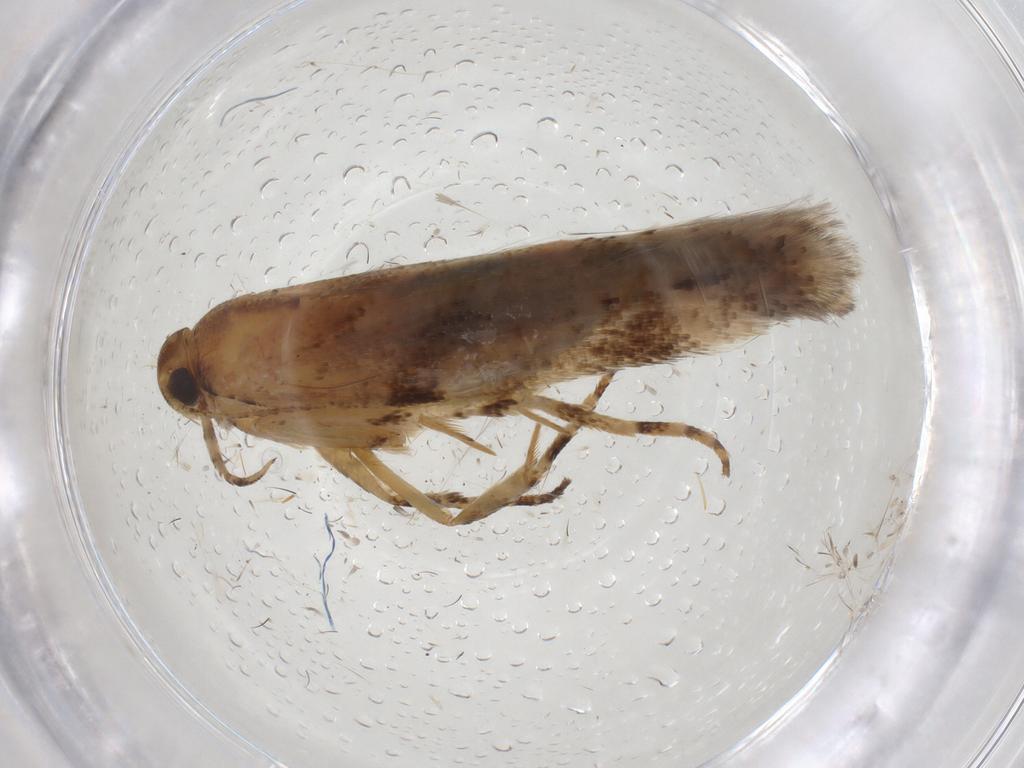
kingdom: Animalia
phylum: Arthropoda
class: Insecta
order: Lepidoptera
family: Gelechiidae
